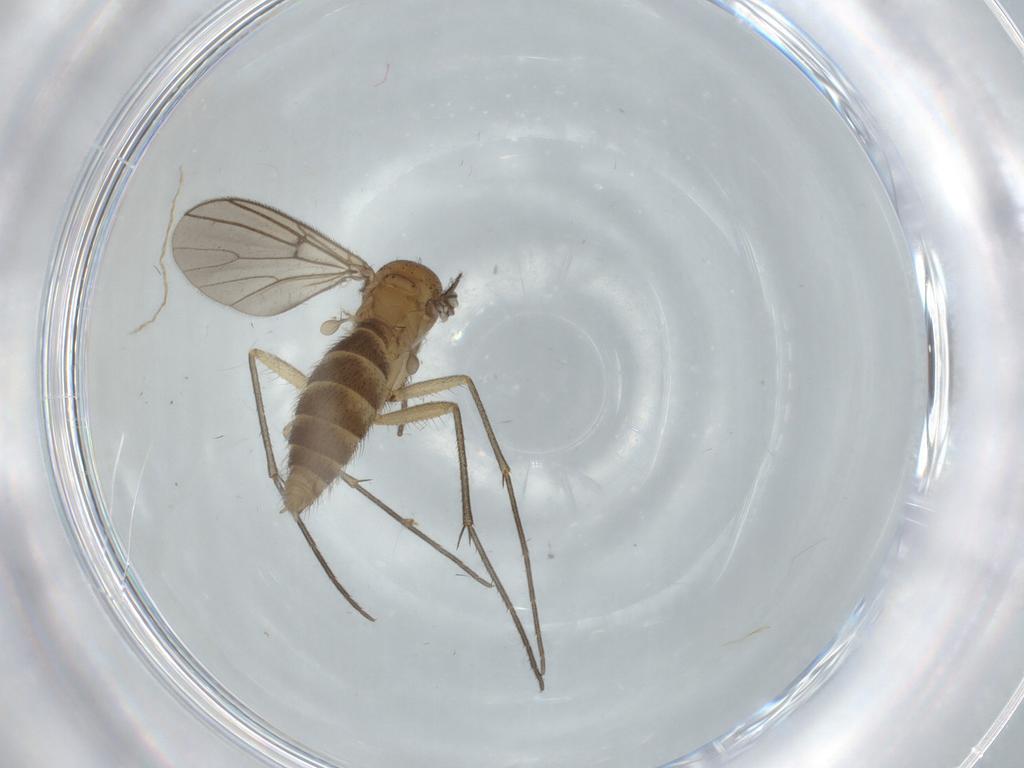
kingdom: Animalia
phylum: Arthropoda
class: Insecta
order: Diptera
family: Mycetophilidae
